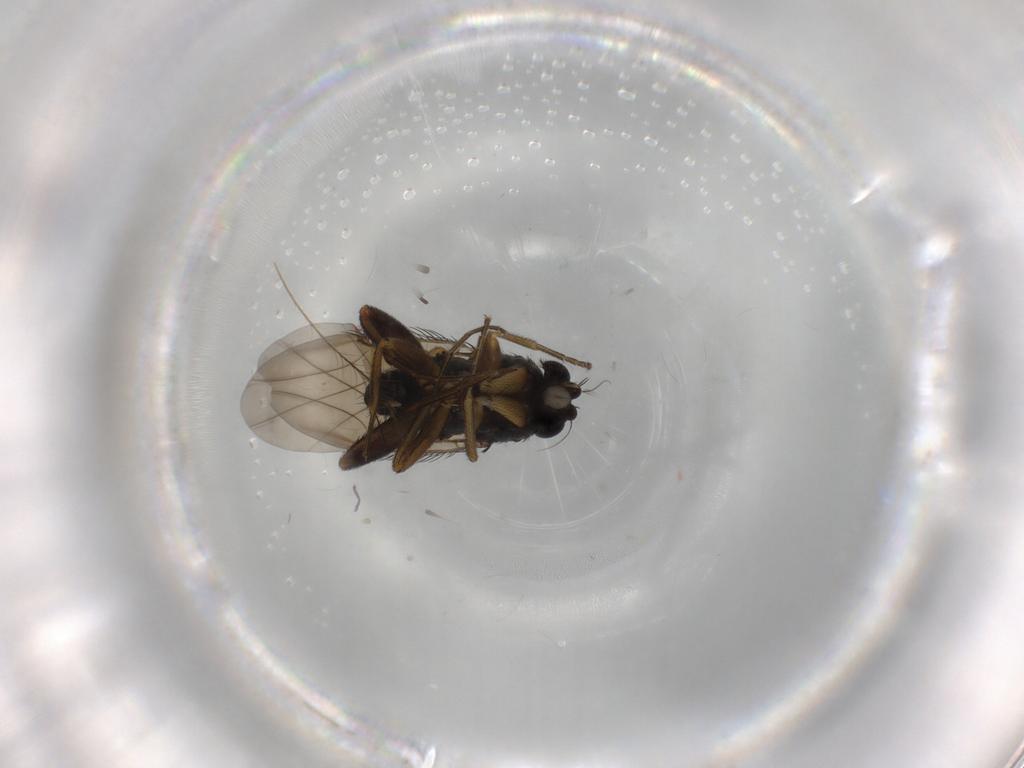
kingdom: Animalia
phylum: Arthropoda
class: Insecta
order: Diptera
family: Phoridae
